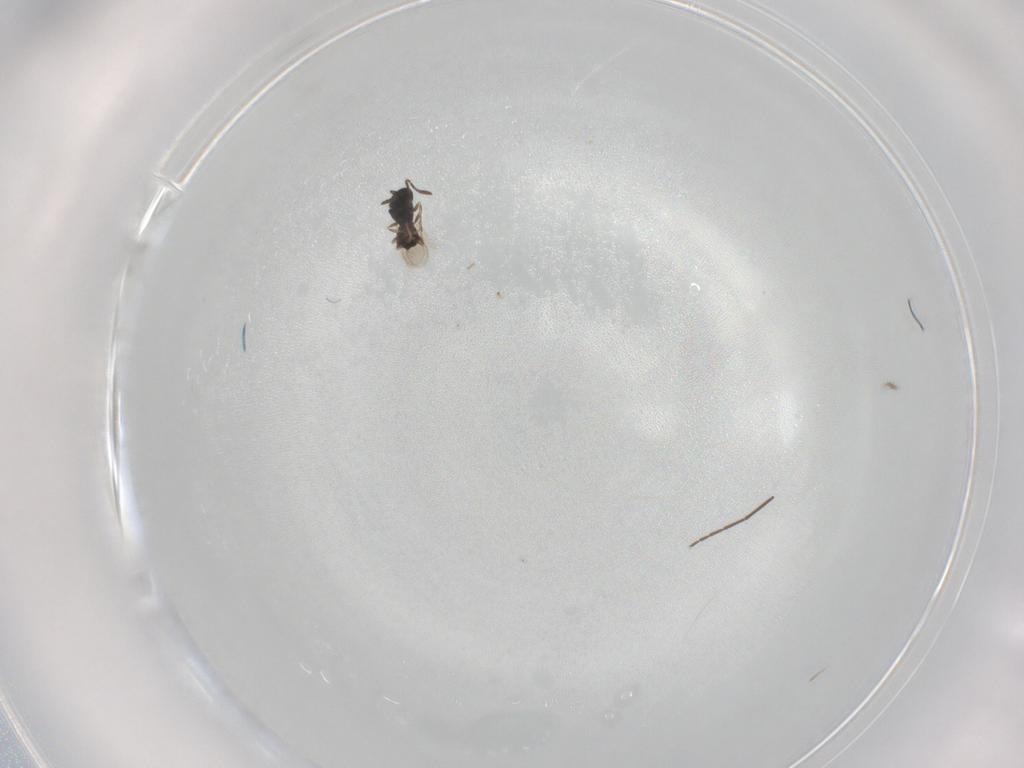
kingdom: Animalia
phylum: Arthropoda
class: Insecta
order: Hymenoptera
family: Scelionidae
